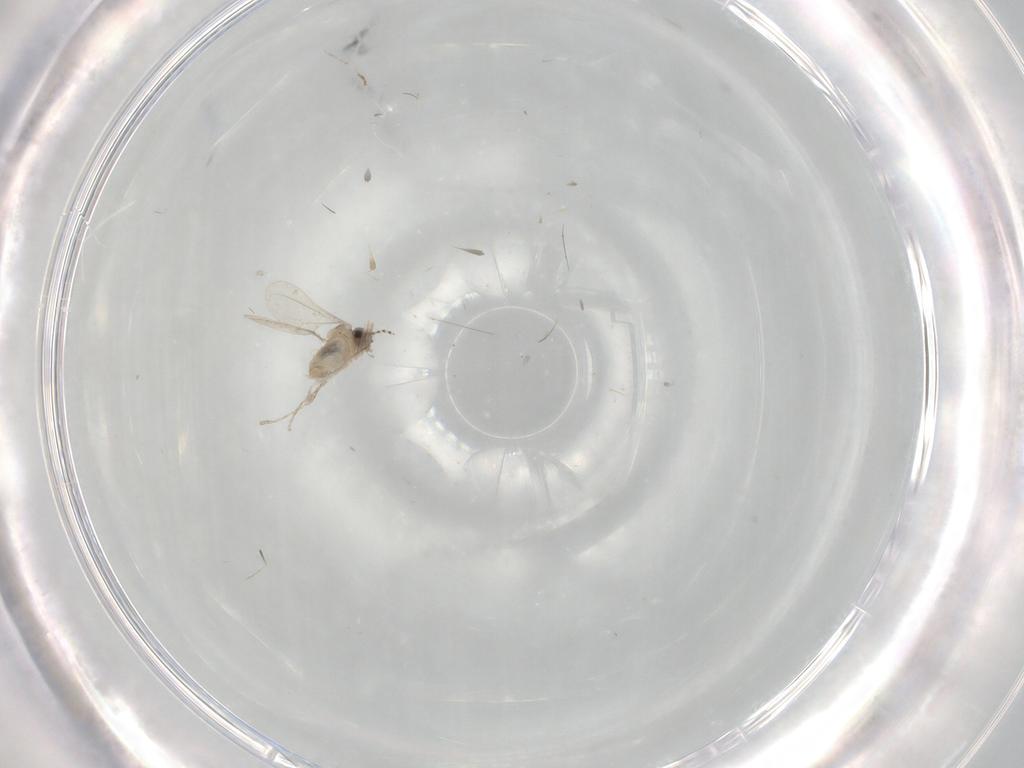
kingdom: Animalia
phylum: Arthropoda
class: Insecta
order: Diptera
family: Cecidomyiidae
